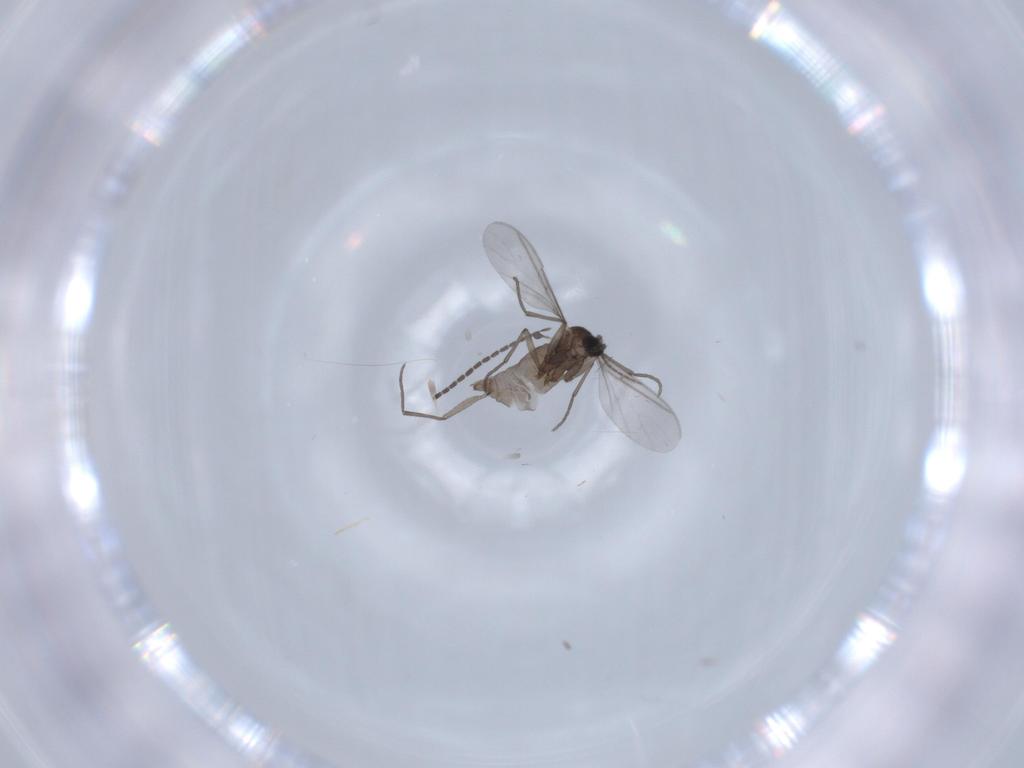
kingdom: Animalia
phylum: Arthropoda
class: Insecta
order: Diptera
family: Sciaridae
